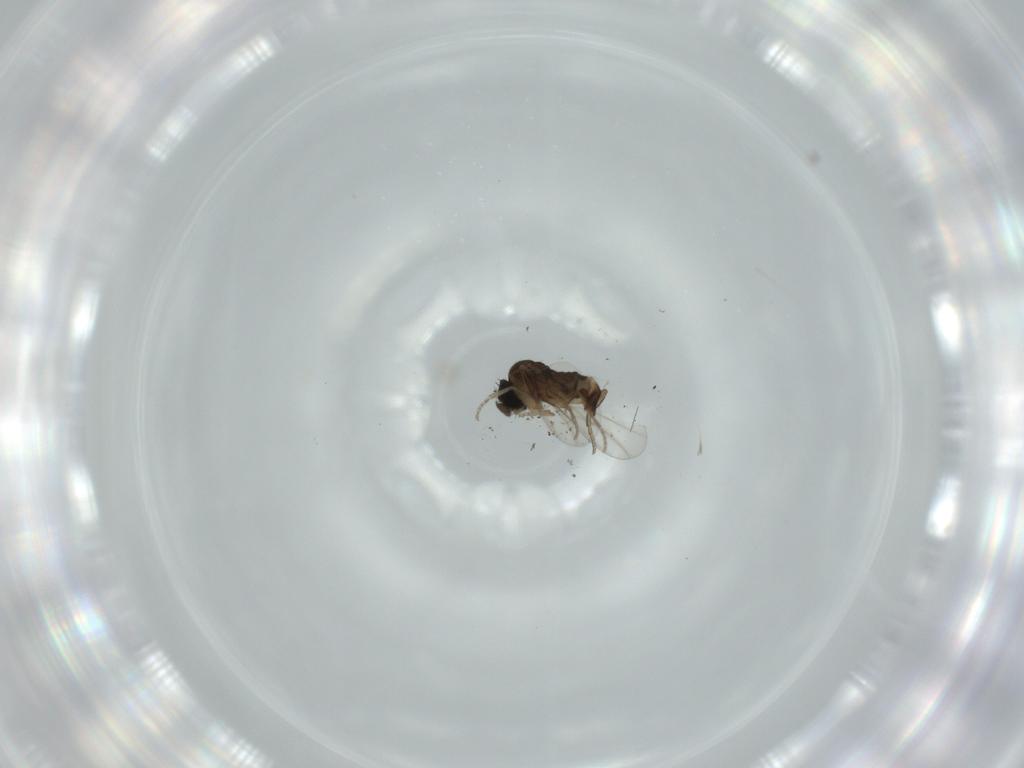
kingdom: Animalia
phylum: Arthropoda
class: Insecta
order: Diptera
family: Phoridae
